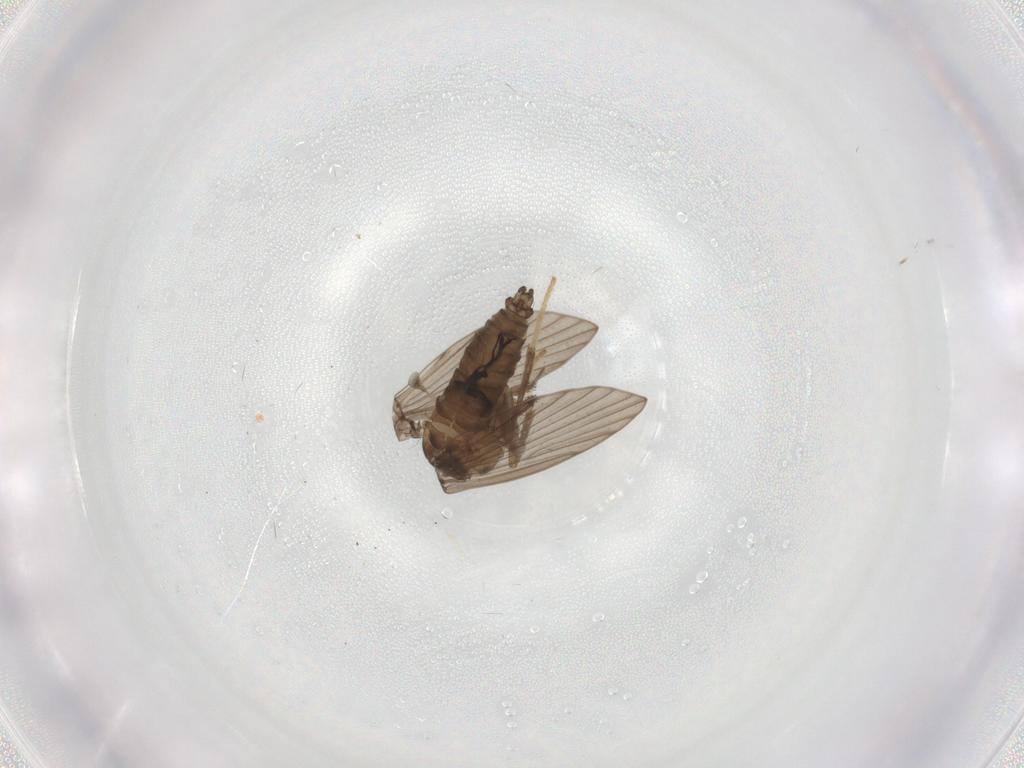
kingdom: Animalia
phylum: Arthropoda
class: Insecta
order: Diptera
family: Psychodidae
